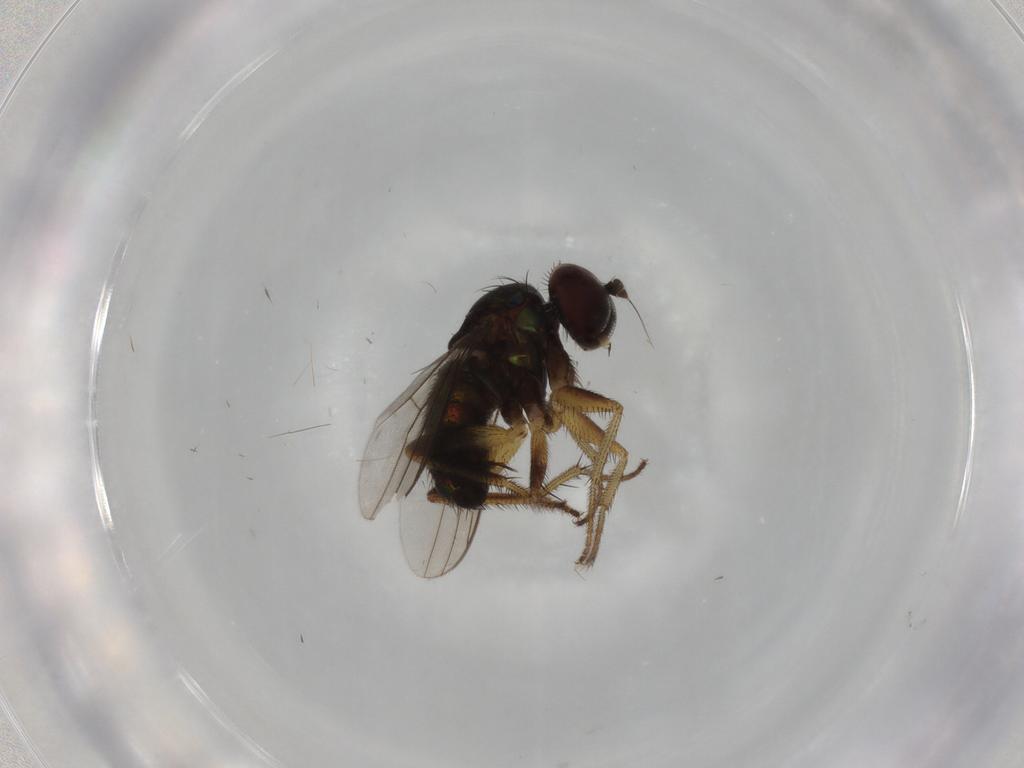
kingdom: Animalia
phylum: Arthropoda
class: Insecta
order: Diptera
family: Dolichopodidae
